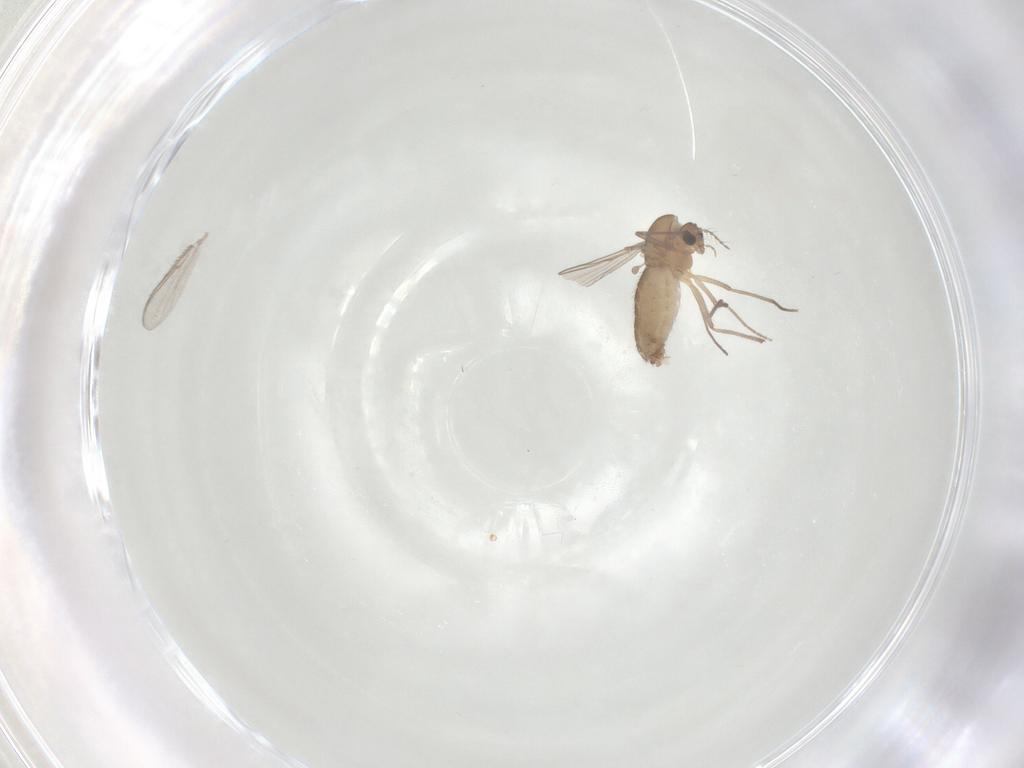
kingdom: Animalia
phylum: Arthropoda
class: Insecta
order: Diptera
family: Chironomidae
